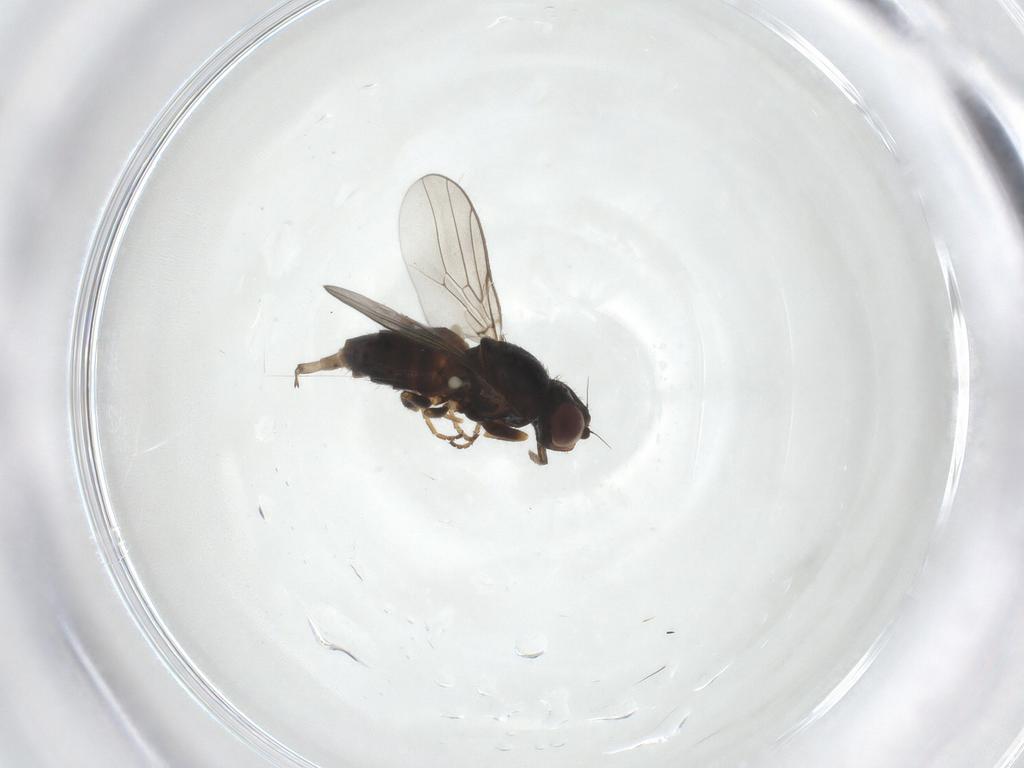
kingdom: Animalia
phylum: Arthropoda
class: Insecta
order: Diptera
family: Chloropidae
